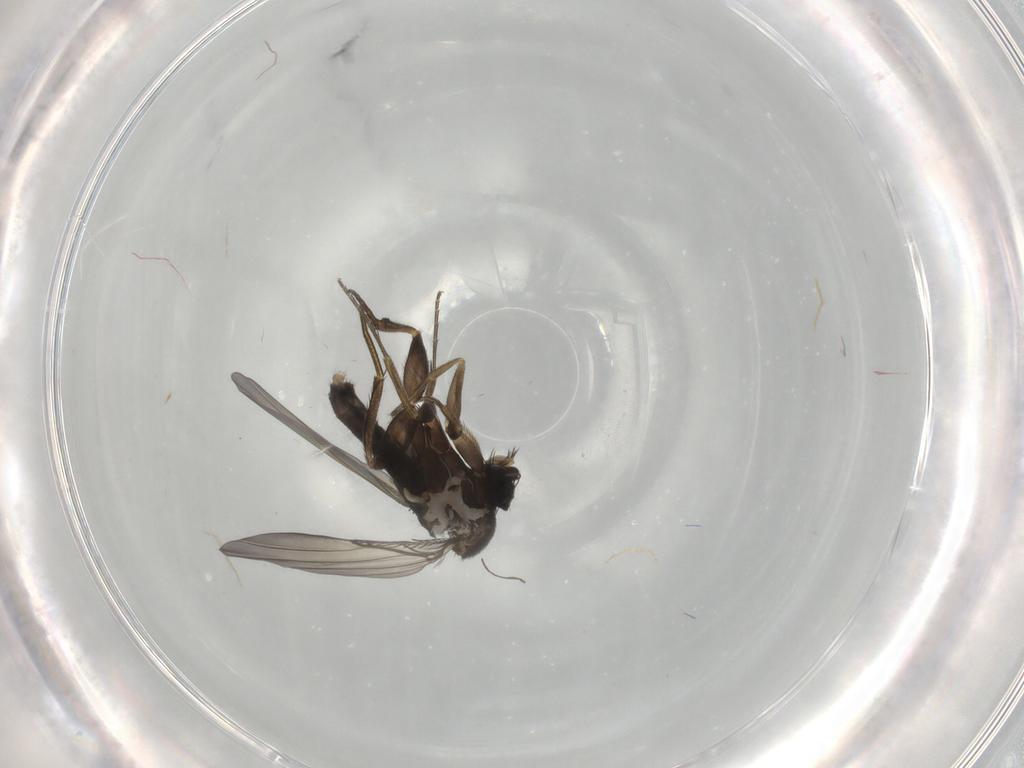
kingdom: Animalia
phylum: Arthropoda
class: Insecta
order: Diptera
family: Phoridae
